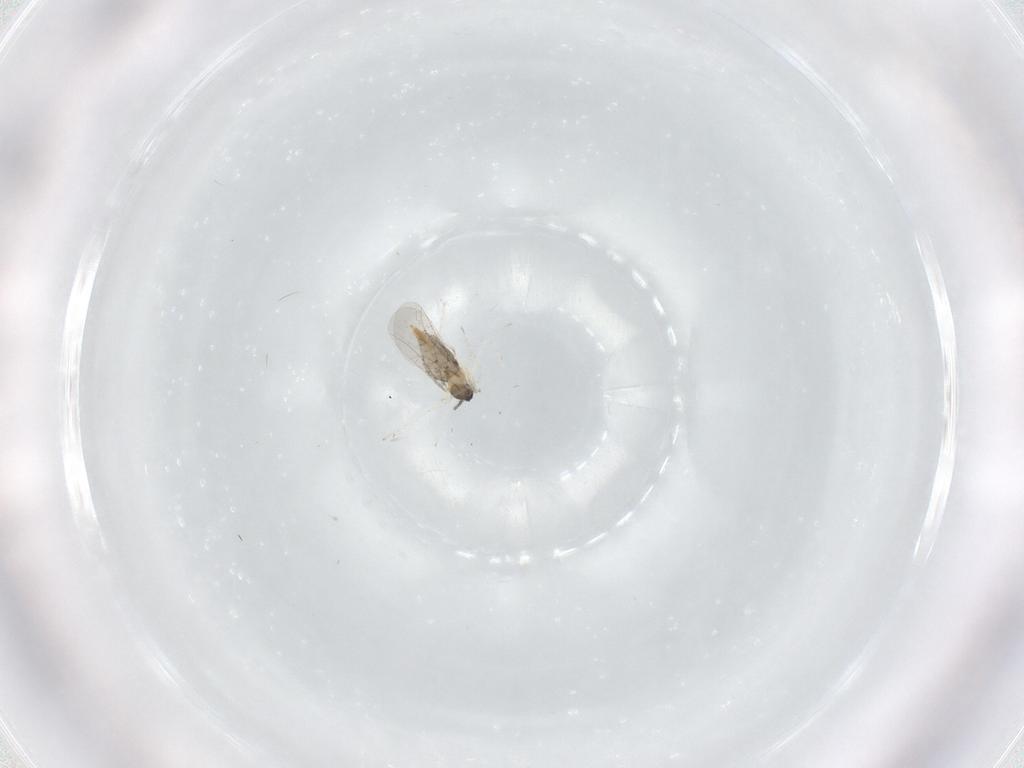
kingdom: Animalia
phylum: Arthropoda
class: Insecta
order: Diptera
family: Cecidomyiidae
